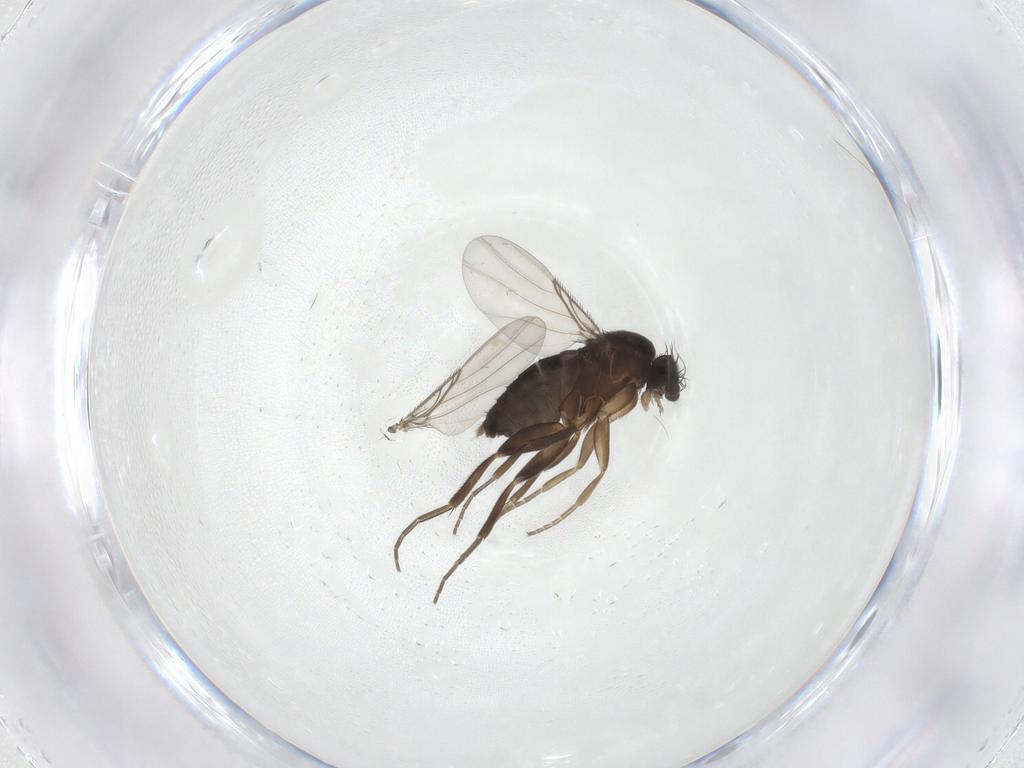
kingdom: Animalia
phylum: Arthropoda
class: Insecta
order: Diptera
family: Phoridae
